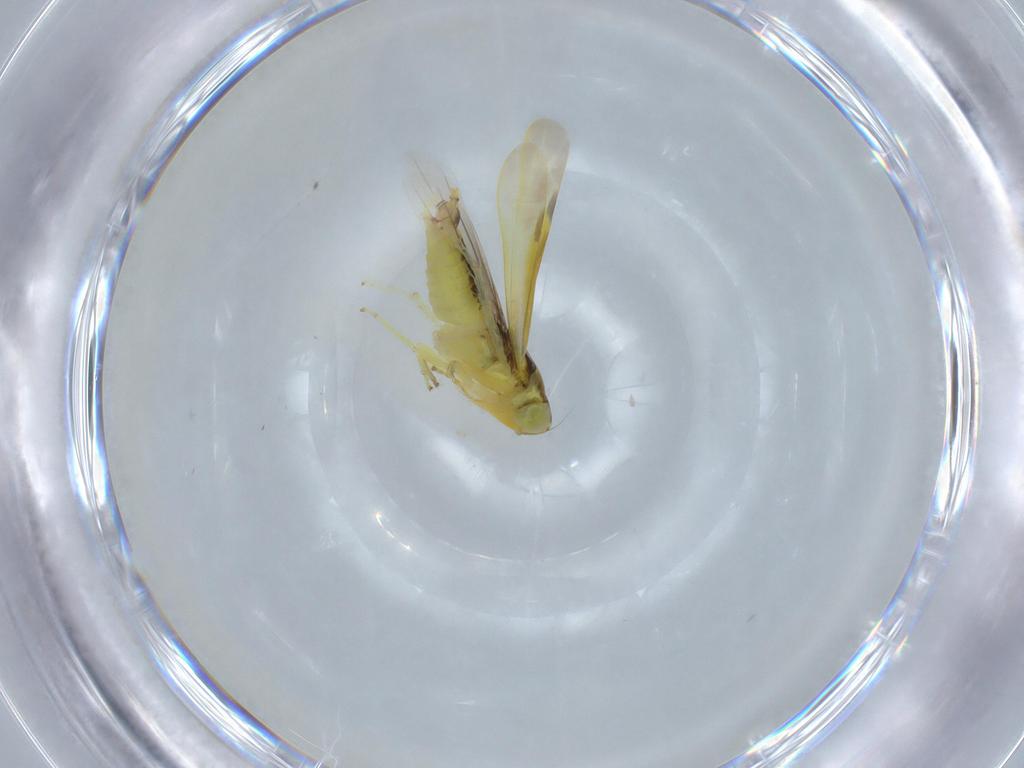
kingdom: Animalia
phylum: Arthropoda
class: Insecta
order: Hemiptera
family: Cicadellidae
